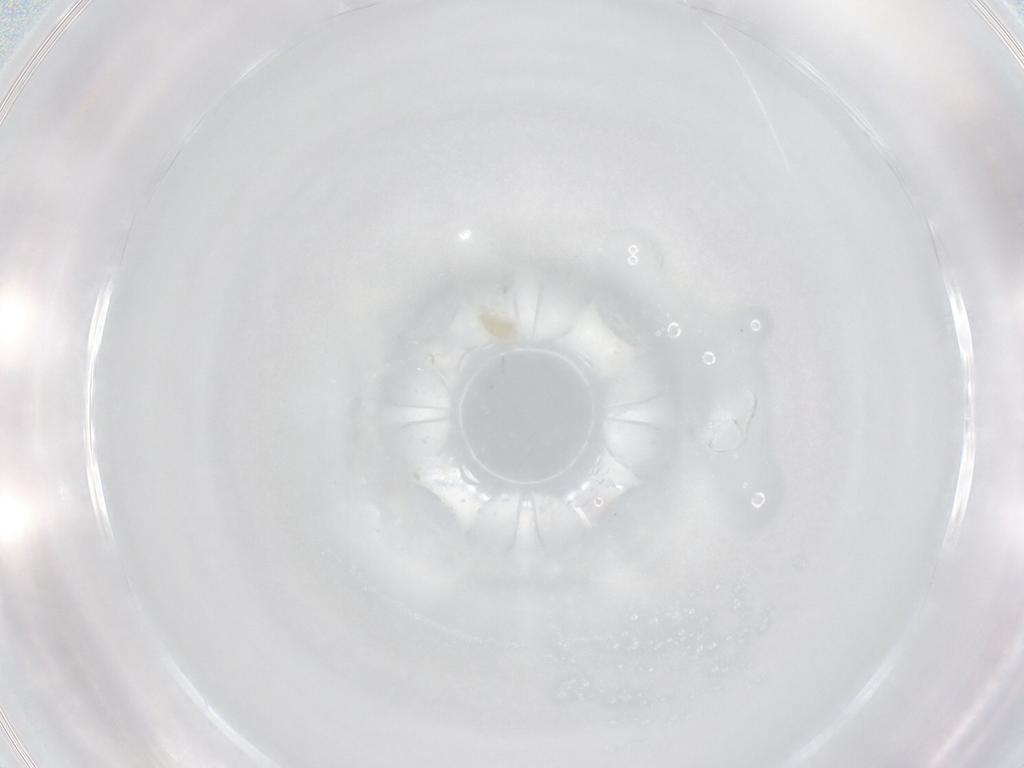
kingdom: Animalia
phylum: Arthropoda
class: Arachnida
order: Trombidiformes
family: Eupodidae
